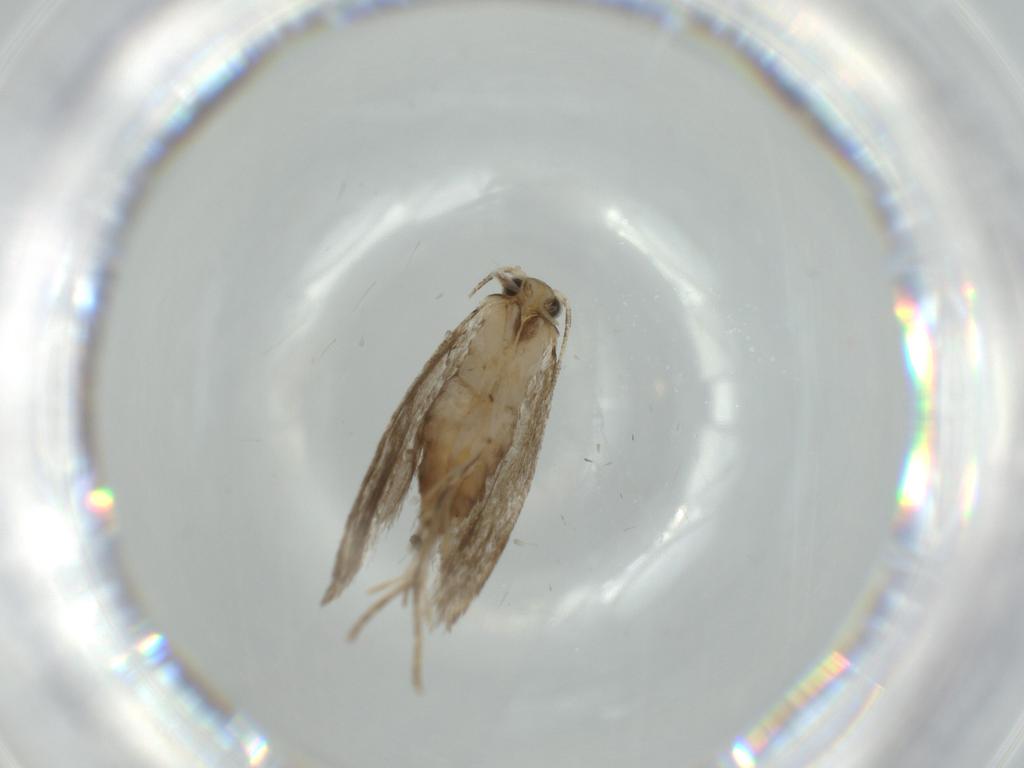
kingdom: Animalia
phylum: Arthropoda
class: Insecta
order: Lepidoptera
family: Tineidae
